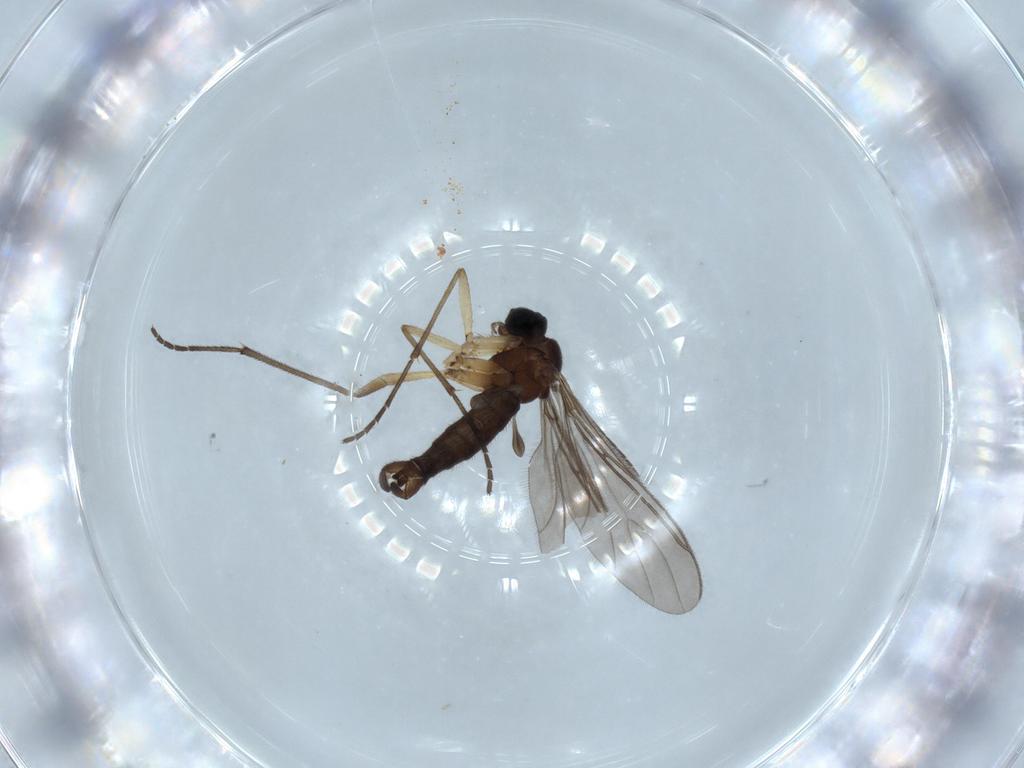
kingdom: Animalia
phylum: Arthropoda
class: Insecta
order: Diptera
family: Sciaridae
